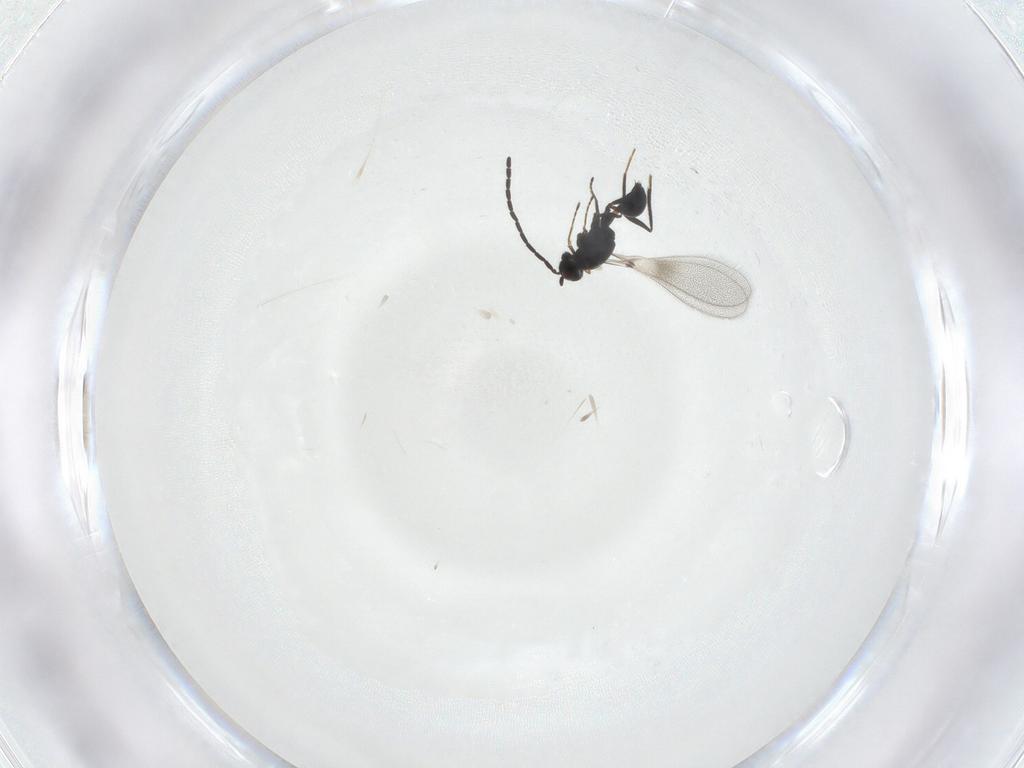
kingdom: Animalia
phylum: Arthropoda
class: Insecta
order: Hymenoptera
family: Mymaridae
